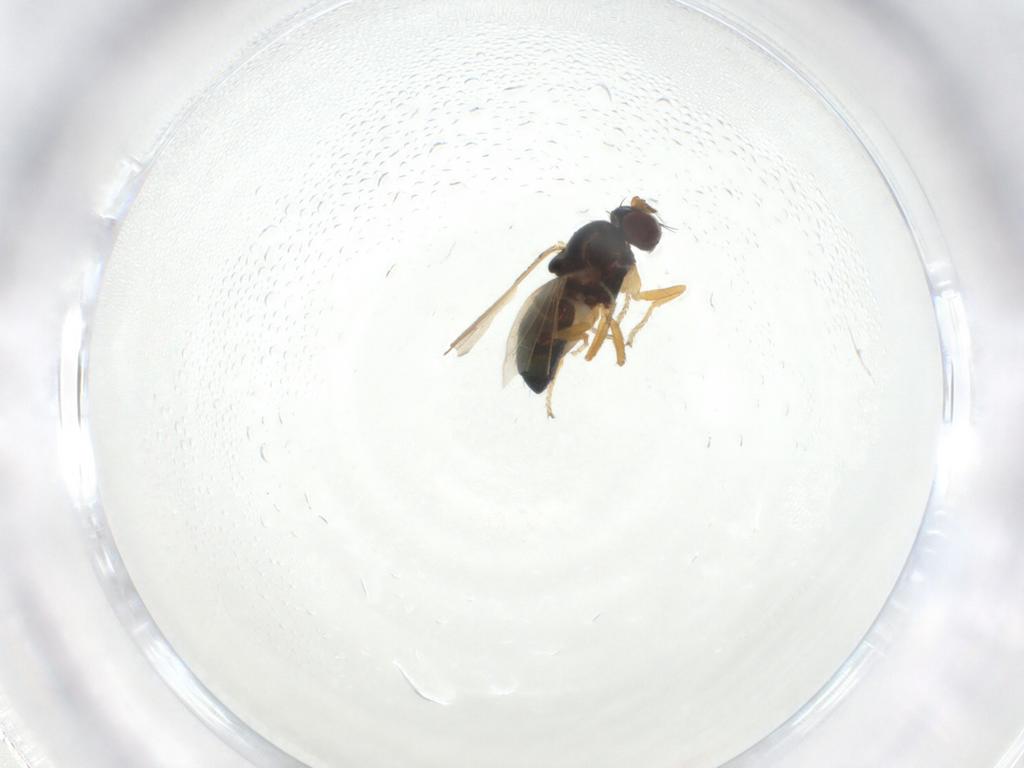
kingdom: Animalia
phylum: Arthropoda
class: Insecta
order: Diptera
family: Ephydridae
